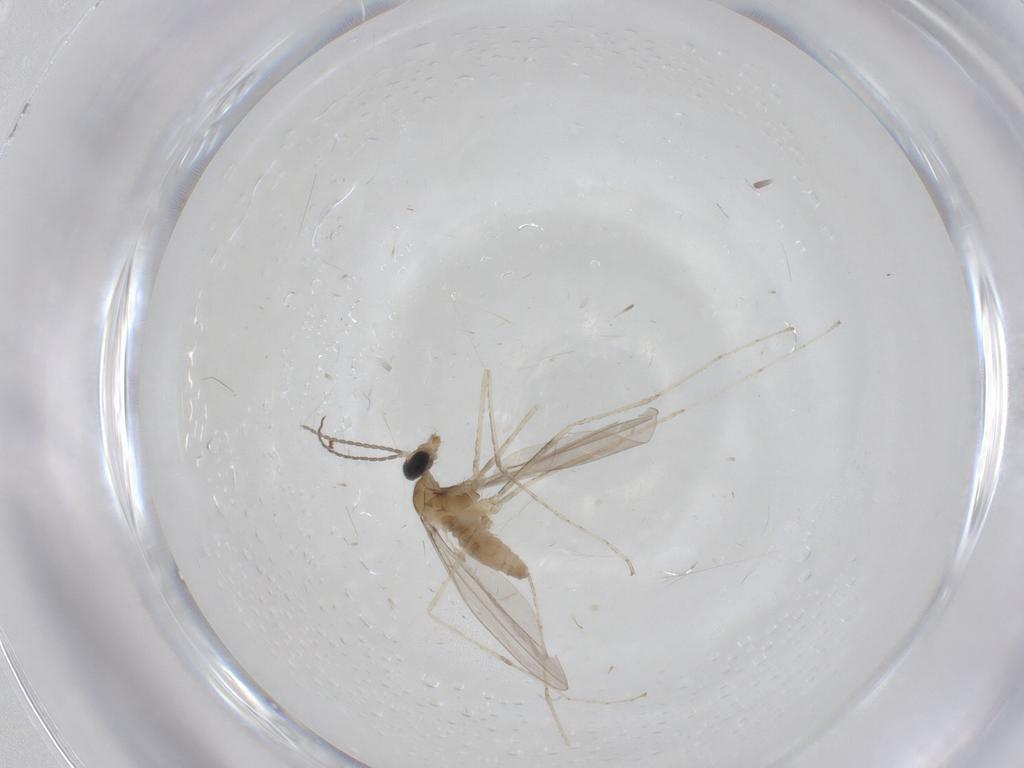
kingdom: Animalia
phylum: Arthropoda
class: Insecta
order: Diptera
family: Cecidomyiidae
